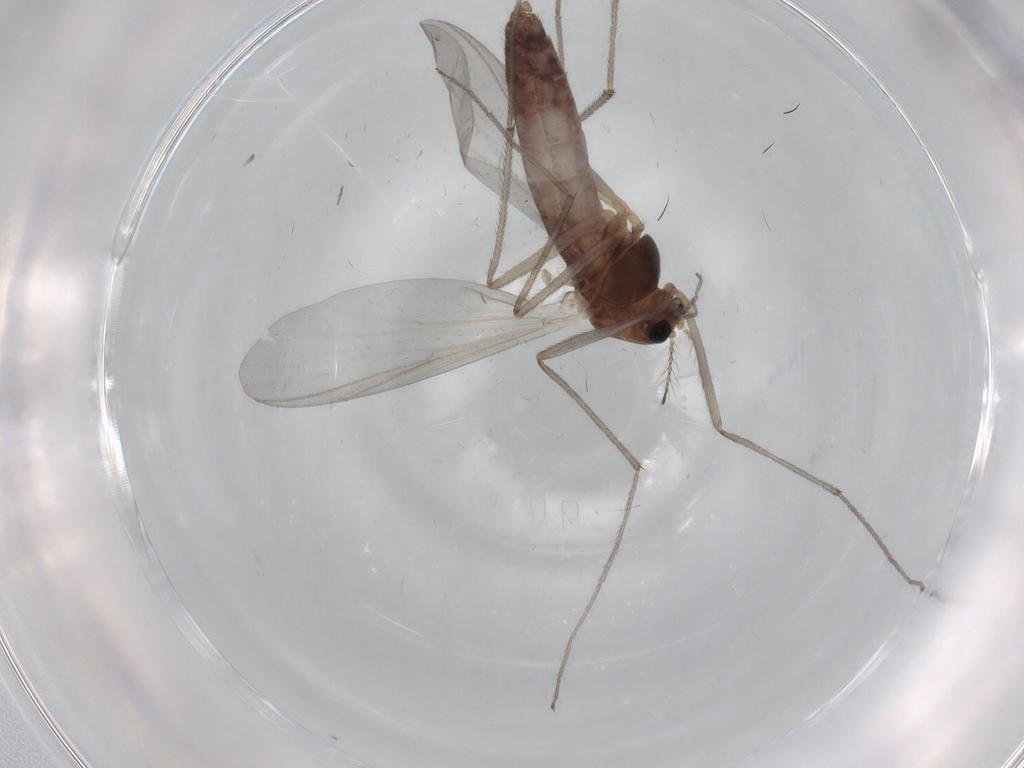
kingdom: Animalia
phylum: Arthropoda
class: Insecta
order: Diptera
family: Chironomidae
